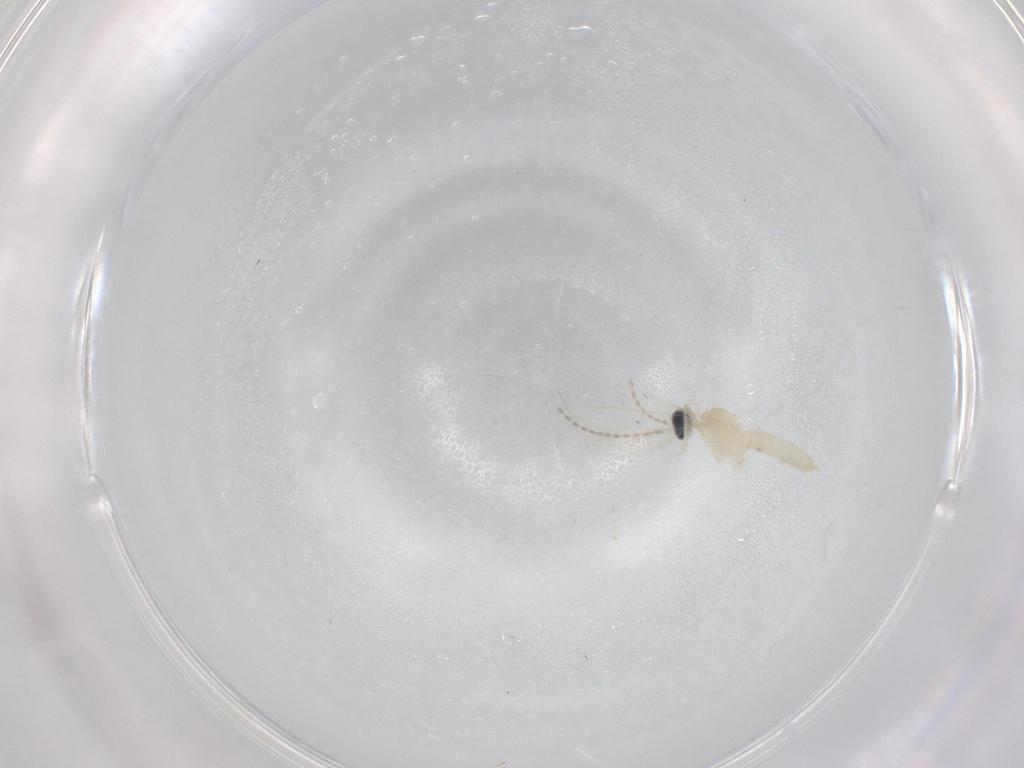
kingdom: Animalia
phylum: Arthropoda
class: Insecta
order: Diptera
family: Cecidomyiidae
